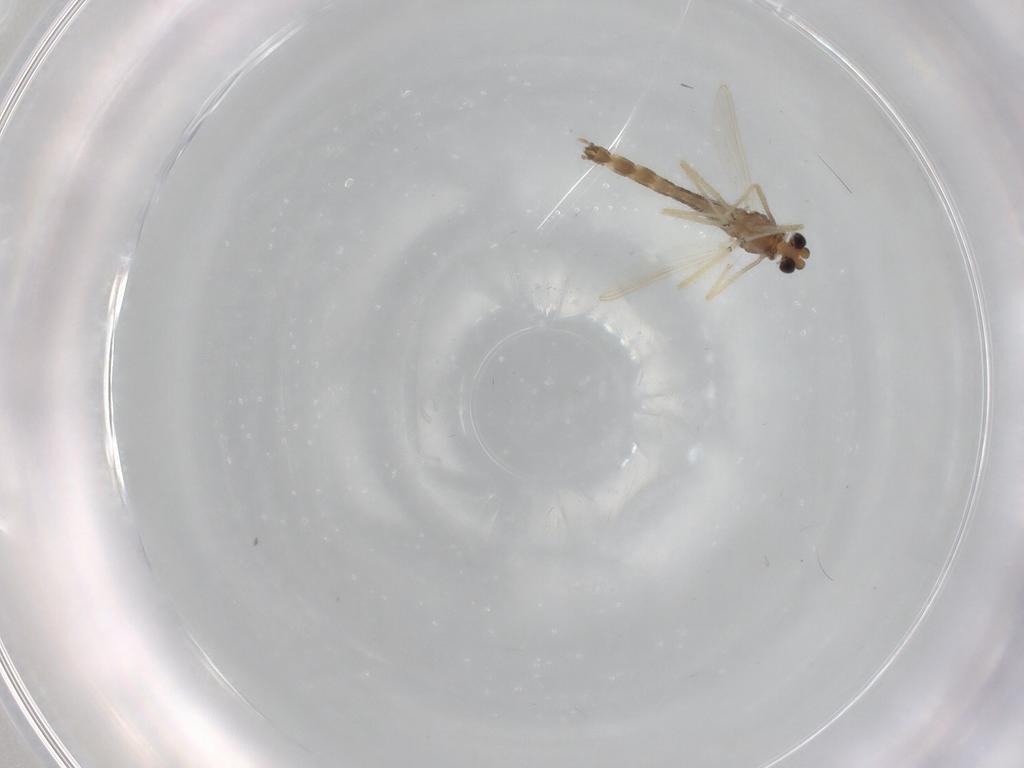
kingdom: Animalia
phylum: Arthropoda
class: Insecta
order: Diptera
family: Chironomidae
